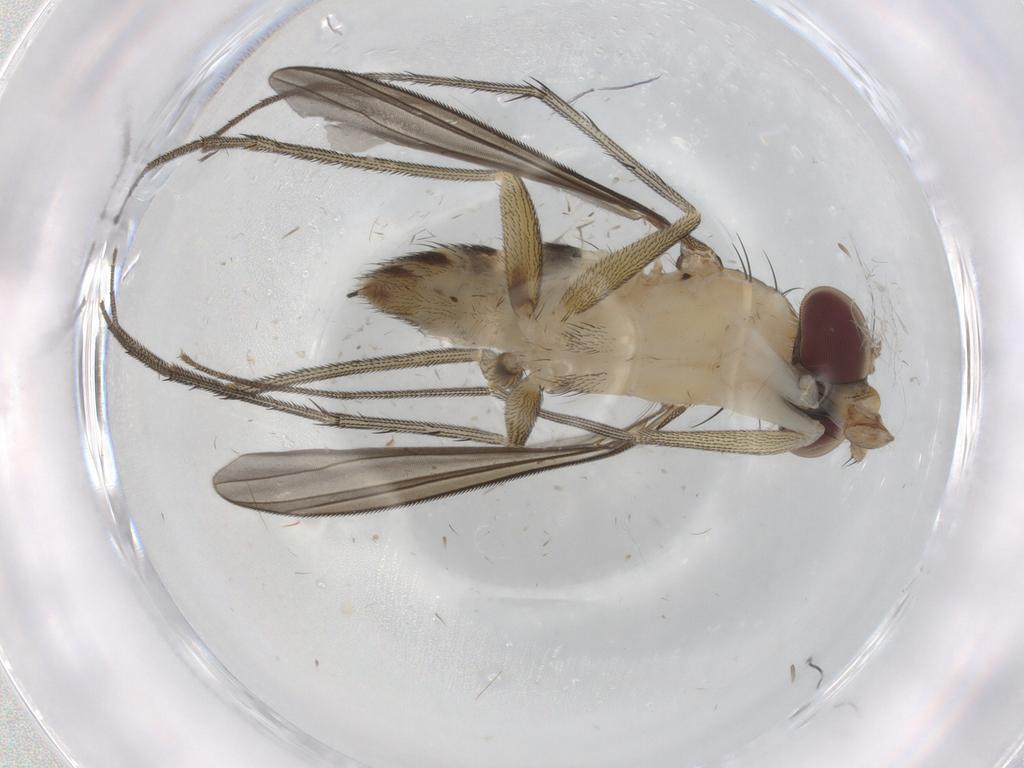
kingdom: Animalia
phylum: Arthropoda
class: Insecta
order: Diptera
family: Dolichopodidae
